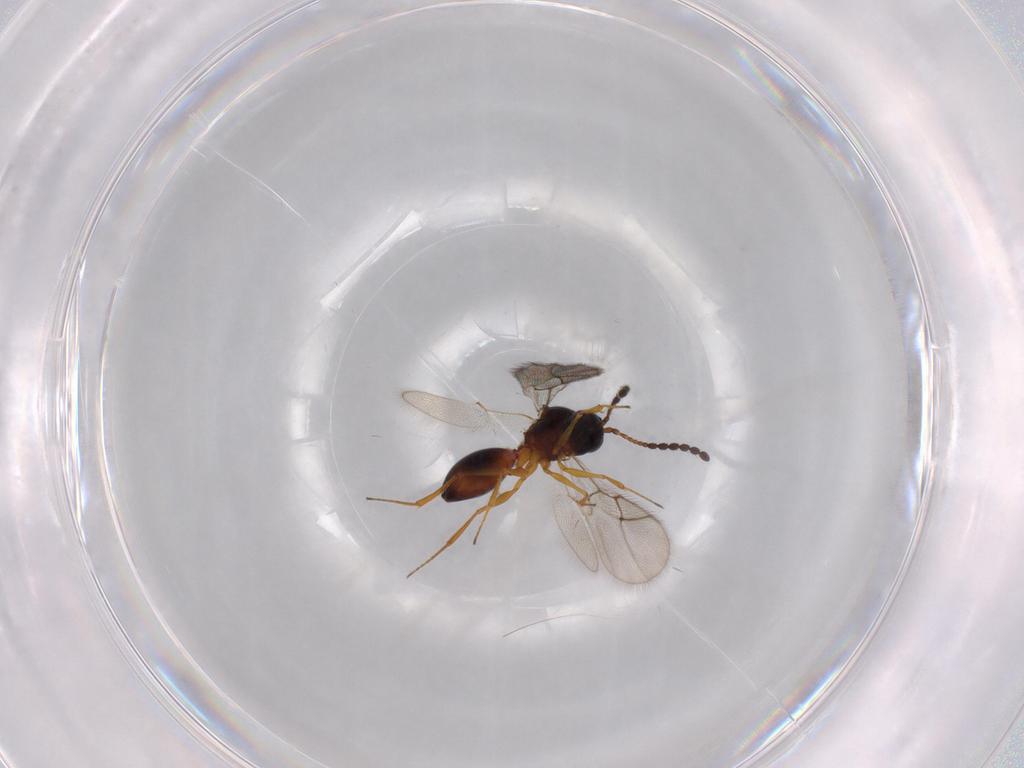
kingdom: Animalia
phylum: Arthropoda
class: Insecta
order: Hymenoptera
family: Figitidae
